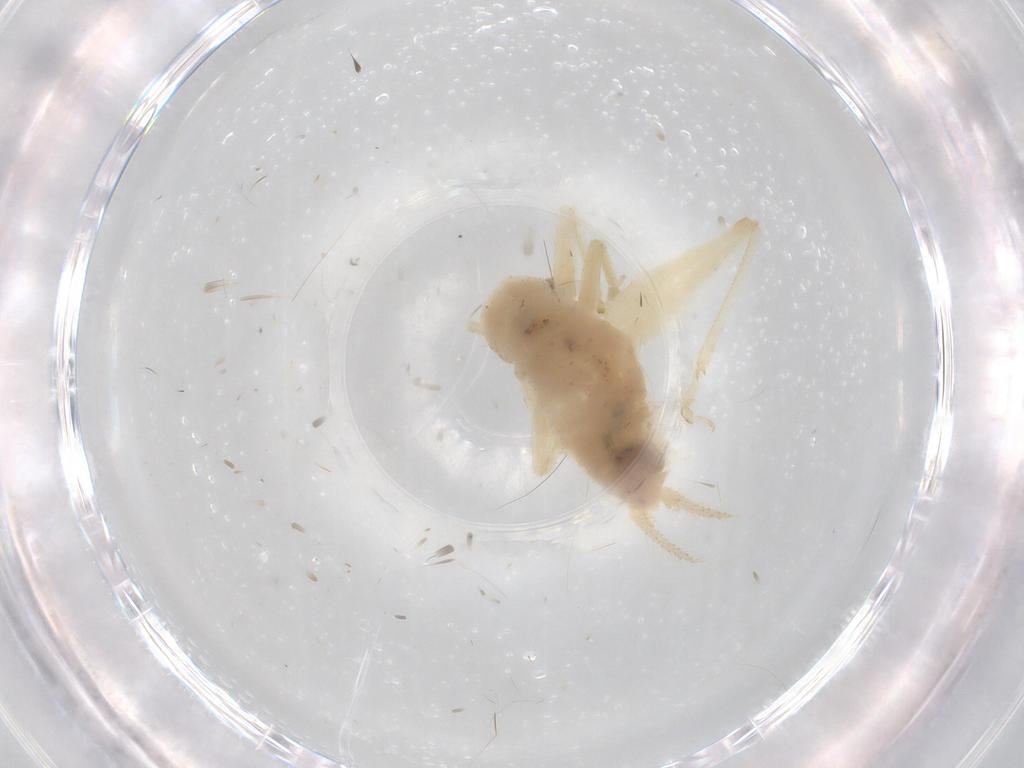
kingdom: Animalia
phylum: Arthropoda
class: Insecta
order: Orthoptera
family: Trigonidiidae
